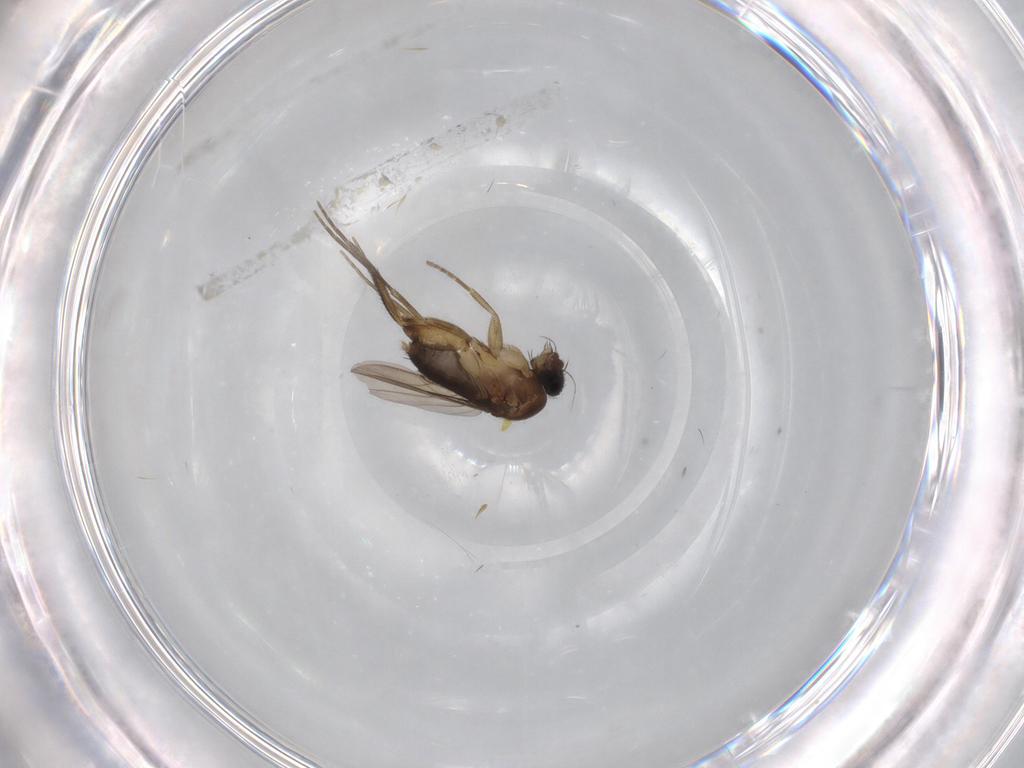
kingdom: Animalia
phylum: Arthropoda
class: Insecta
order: Diptera
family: Phoridae
